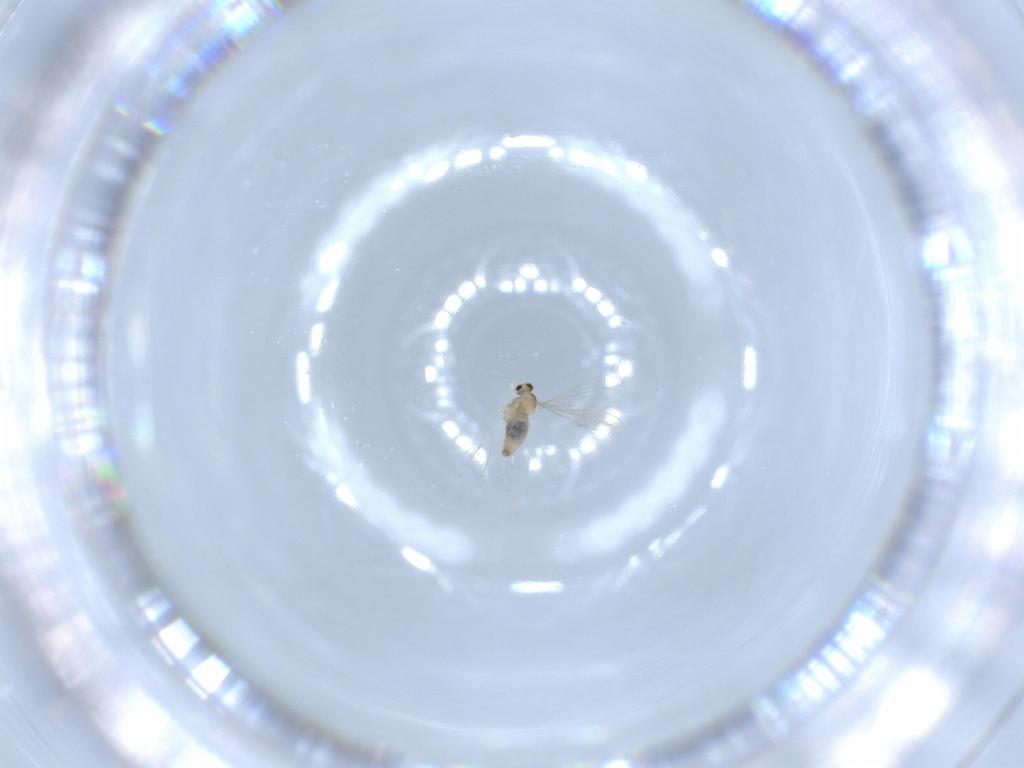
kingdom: Animalia
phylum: Arthropoda
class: Insecta
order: Diptera
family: Cecidomyiidae
